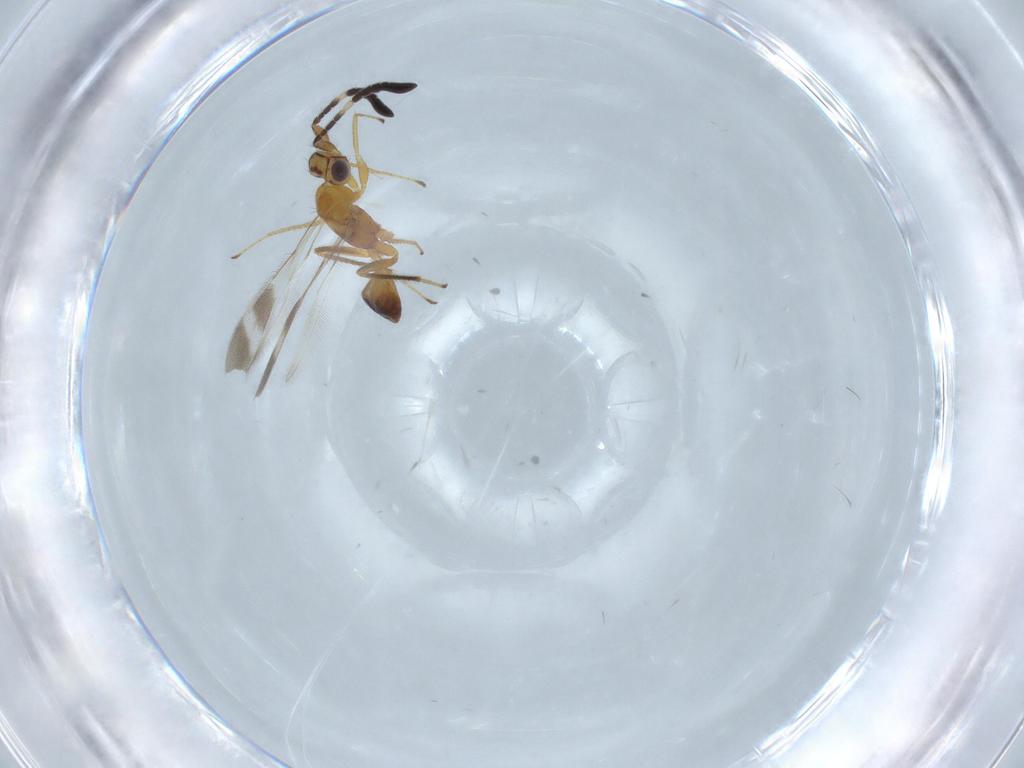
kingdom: Animalia
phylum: Arthropoda
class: Insecta
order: Hymenoptera
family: Mymaridae
